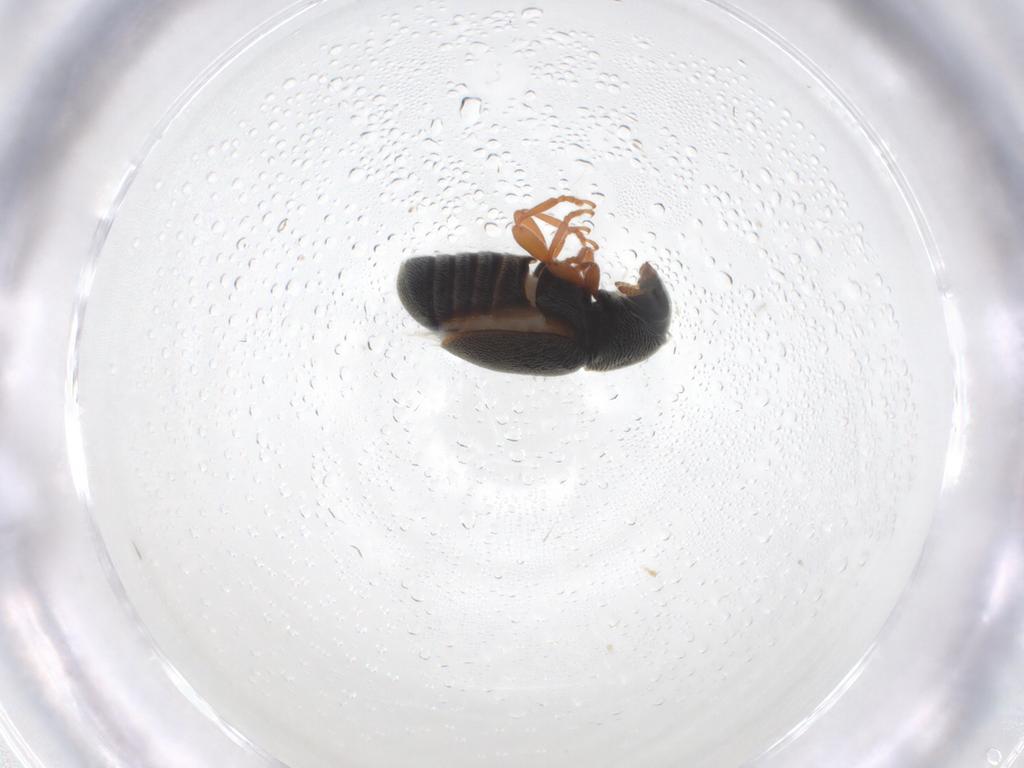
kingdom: Animalia
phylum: Arthropoda
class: Insecta
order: Coleoptera
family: Anthribidae
